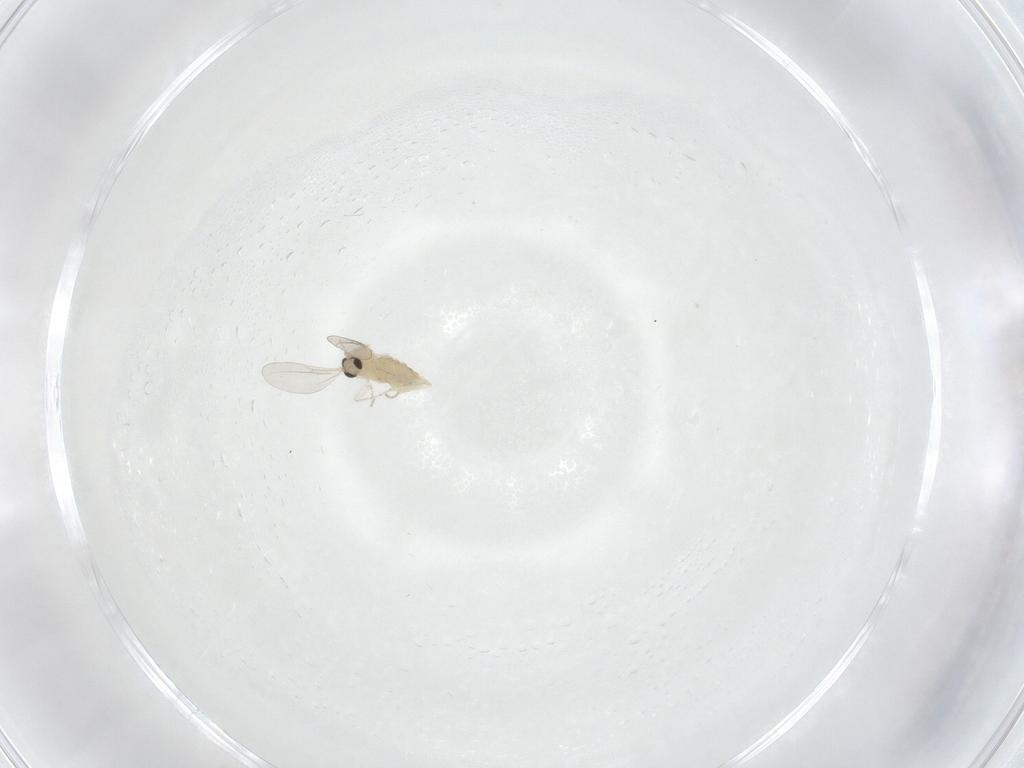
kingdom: Animalia
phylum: Arthropoda
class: Insecta
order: Diptera
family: Cecidomyiidae
